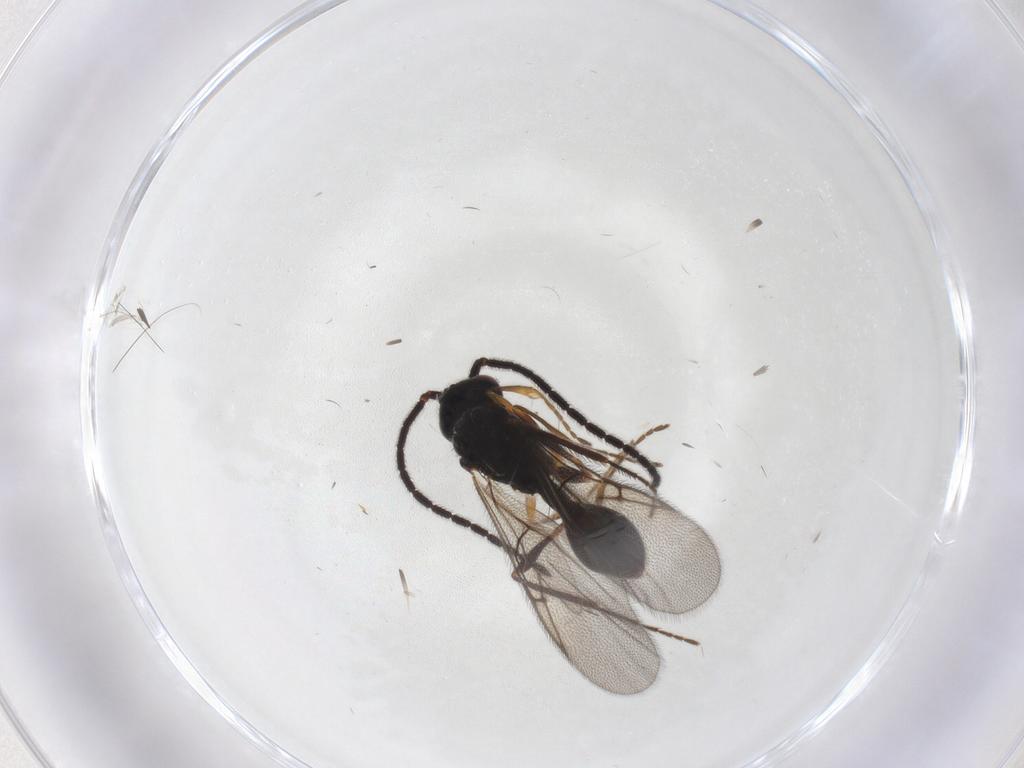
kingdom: Animalia
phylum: Arthropoda
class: Insecta
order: Hymenoptera
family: Diapriidae
